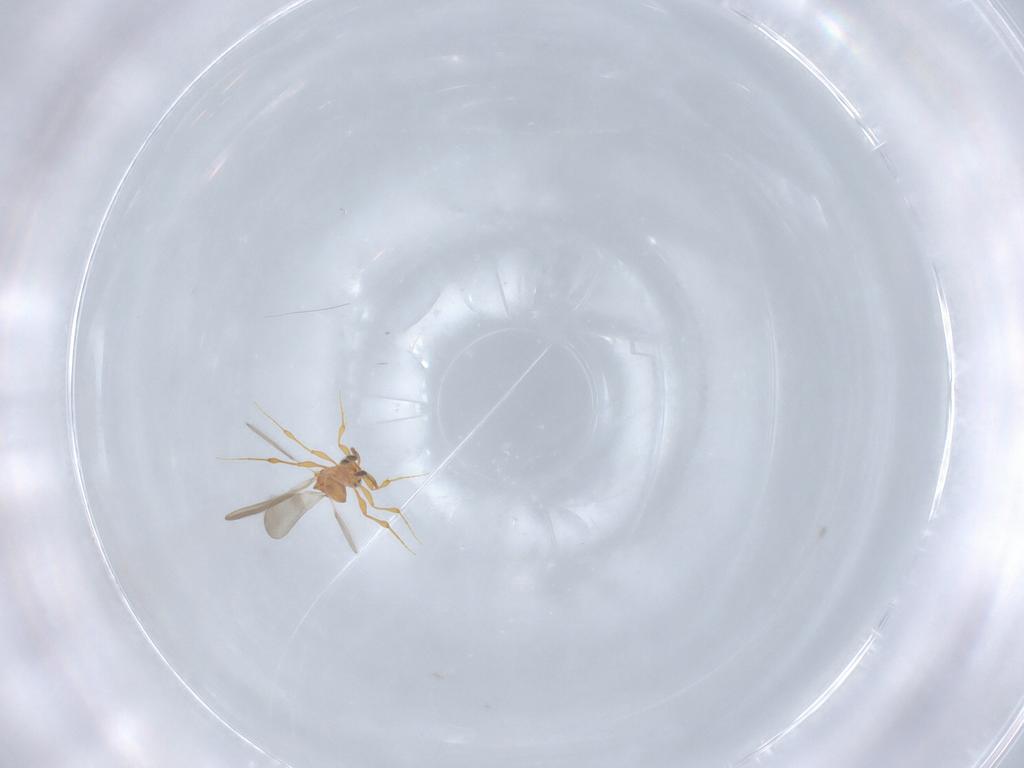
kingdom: Animalia
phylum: Arthropoda
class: Insecta
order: Hymenoptera
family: Platygastridae
